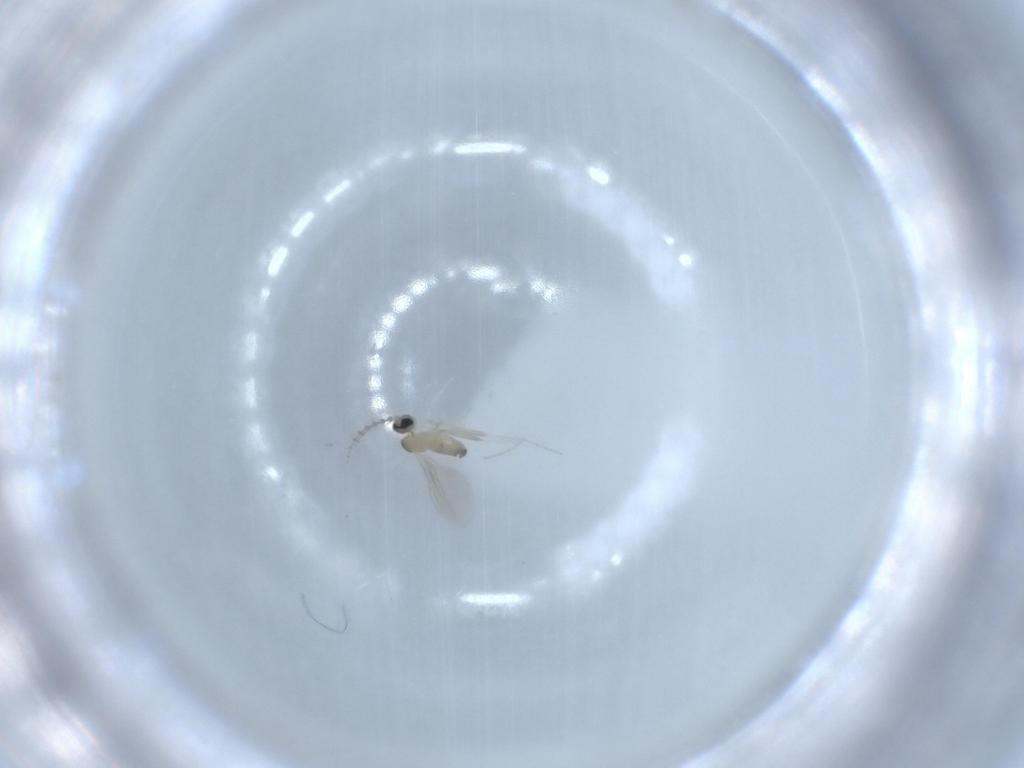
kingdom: Animalia
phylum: Arthropoda
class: Insecta
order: Diptera
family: Cecidomyiidae
